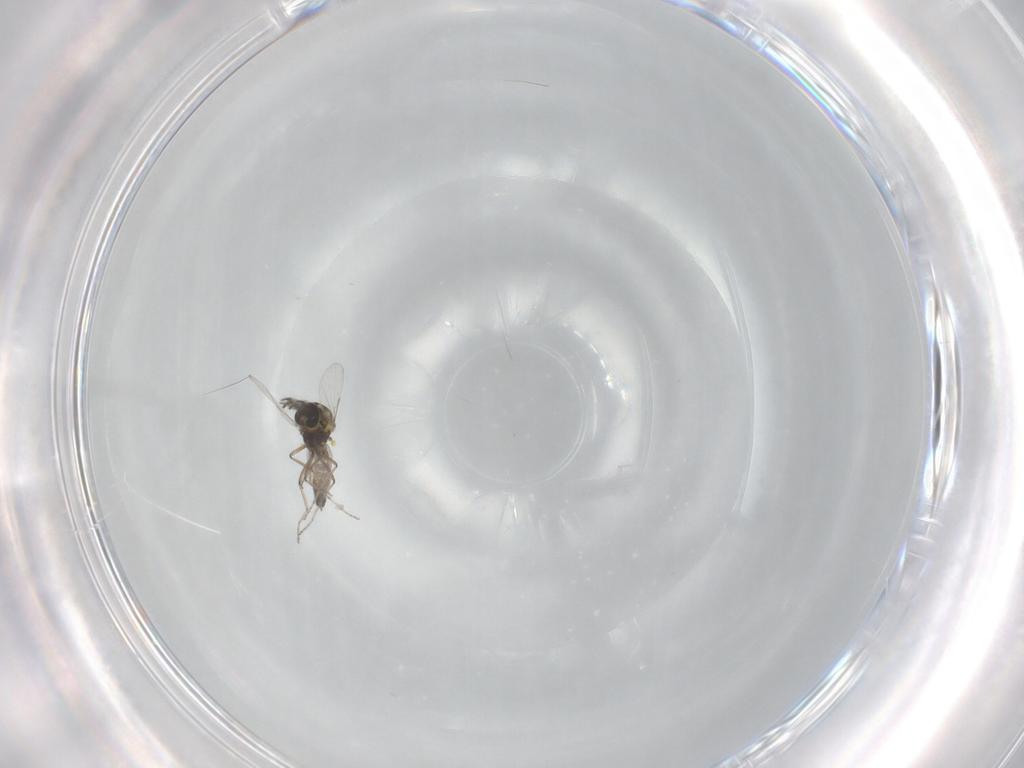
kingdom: Animalia
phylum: Arthropoda
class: Insecta
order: Diptera
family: Ceratopogonidae
